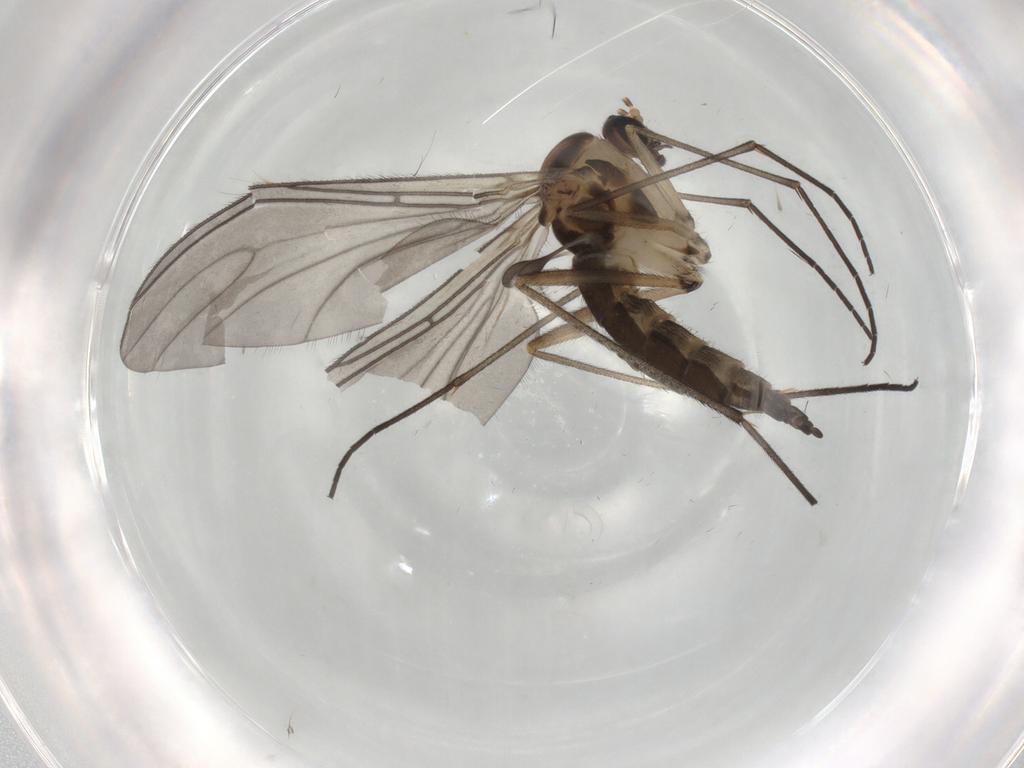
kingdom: Animalia
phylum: Arthropoda
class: Insecta
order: Diptera
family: Sciaridae
